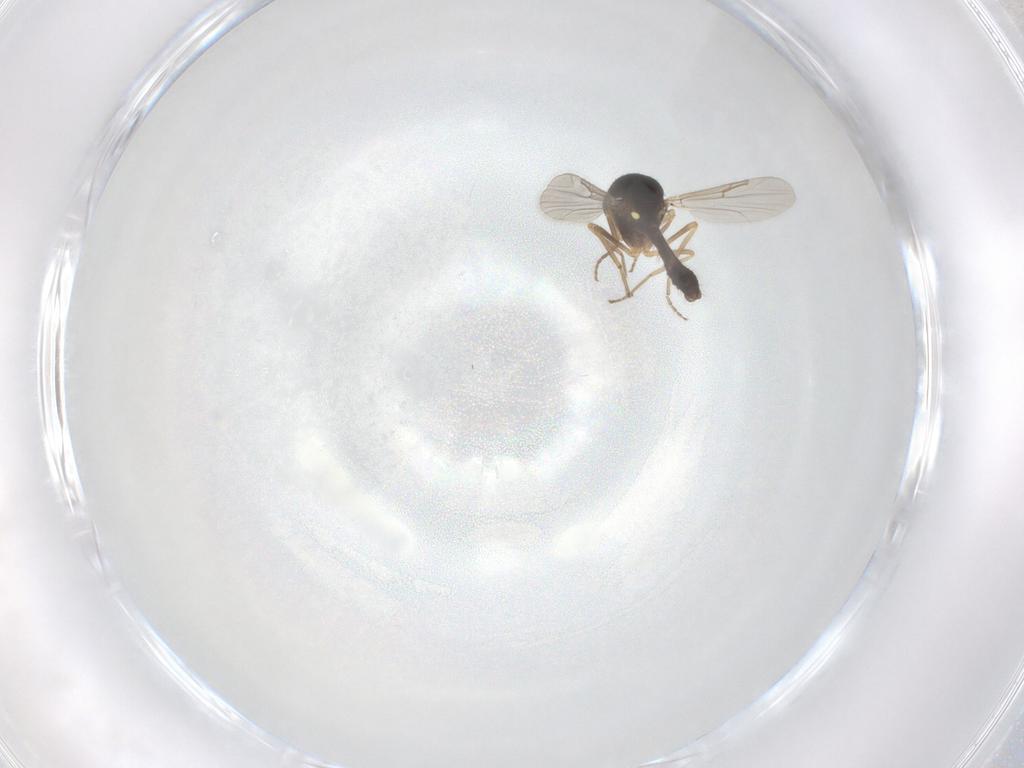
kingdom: Animalia
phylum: Arthropoda
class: Insecta
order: Diptera
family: Ceratopogonidae
